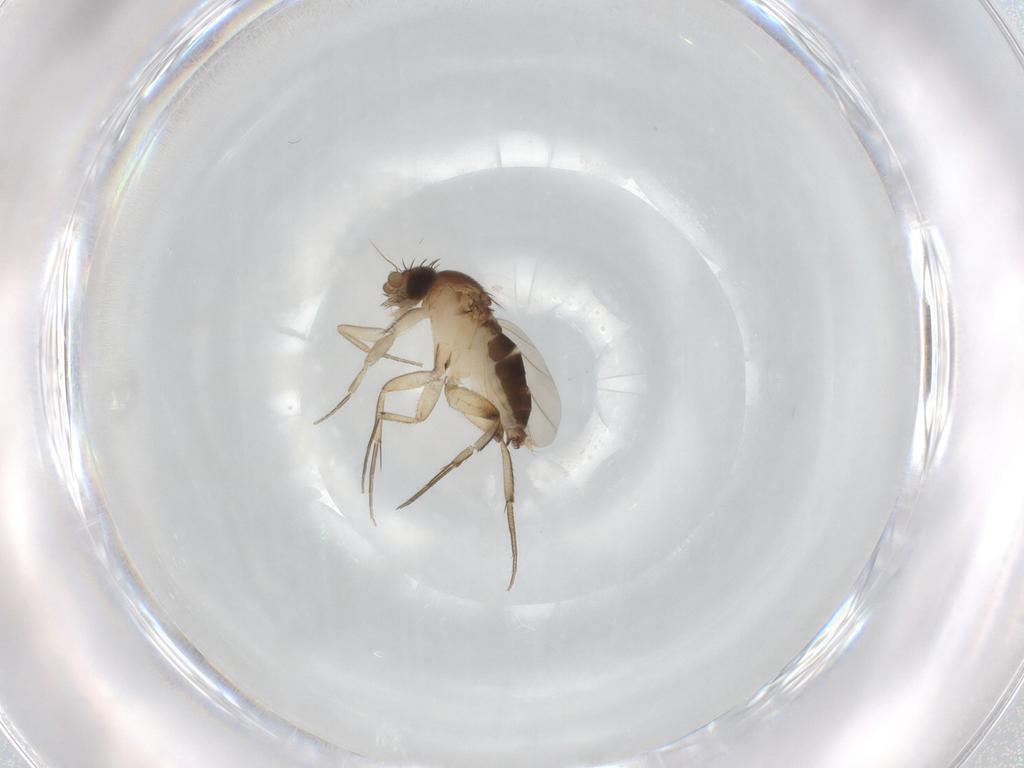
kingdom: Animalia
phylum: Arthropoda
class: Insecta
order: Diptera
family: Phoridae
